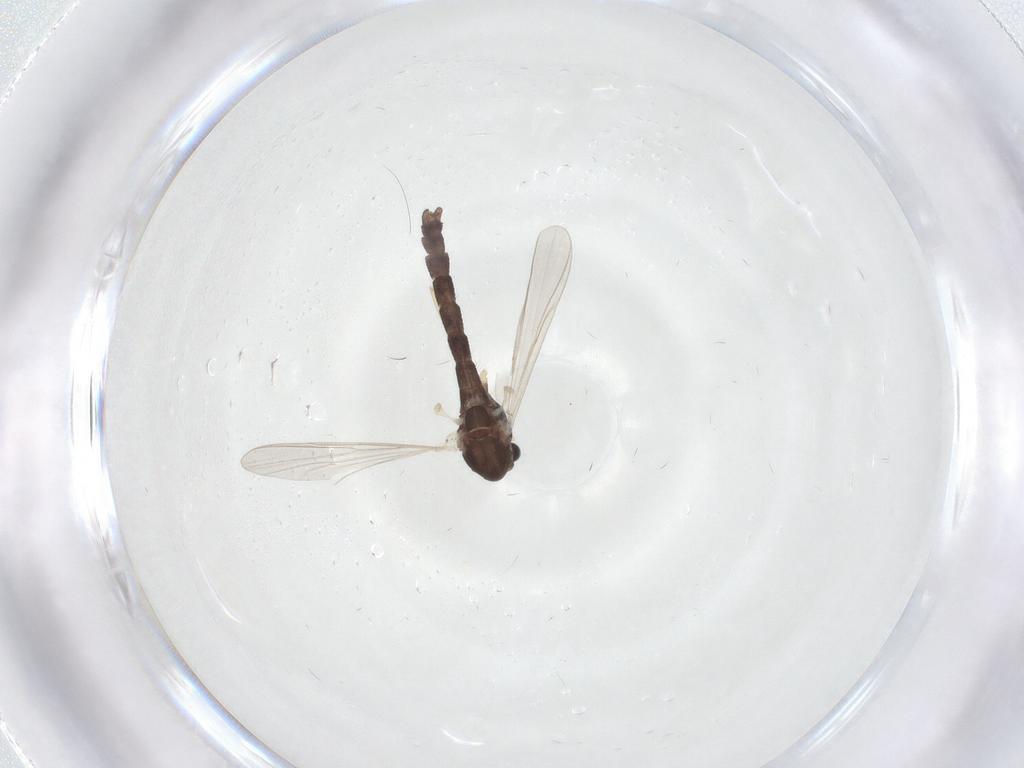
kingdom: Animalia
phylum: Arthropoda
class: Insecta
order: Diptera
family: Chironomidae
